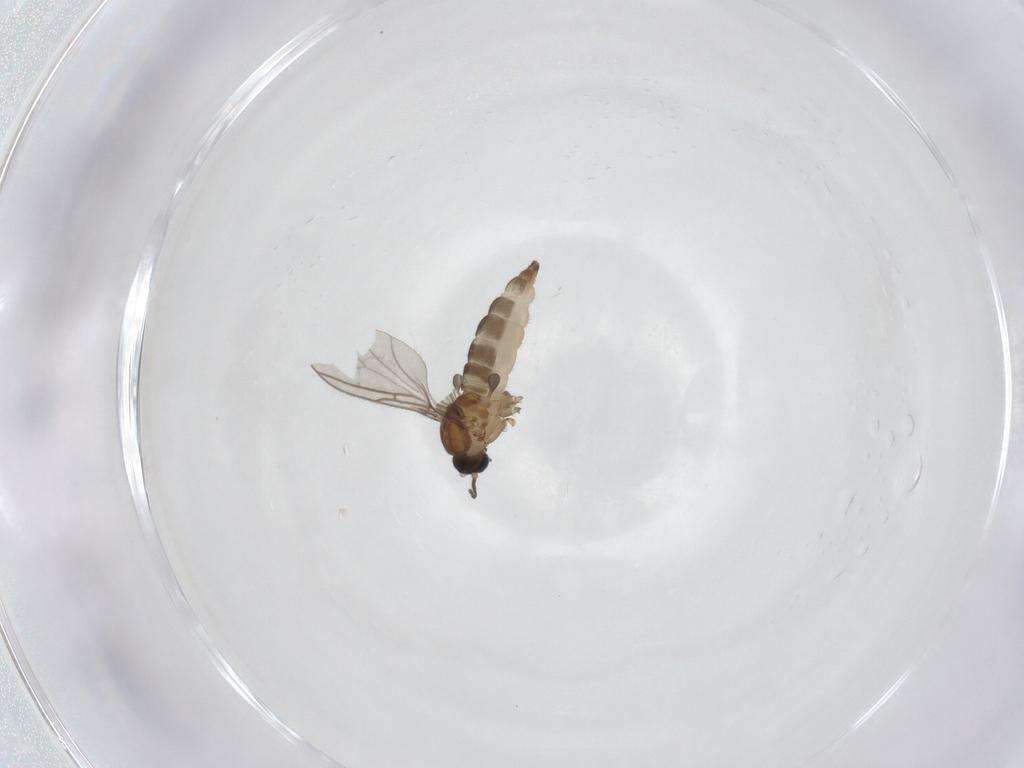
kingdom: Animalia
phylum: Arthropoda
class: Insecta
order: Diptera
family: Sciaridae
